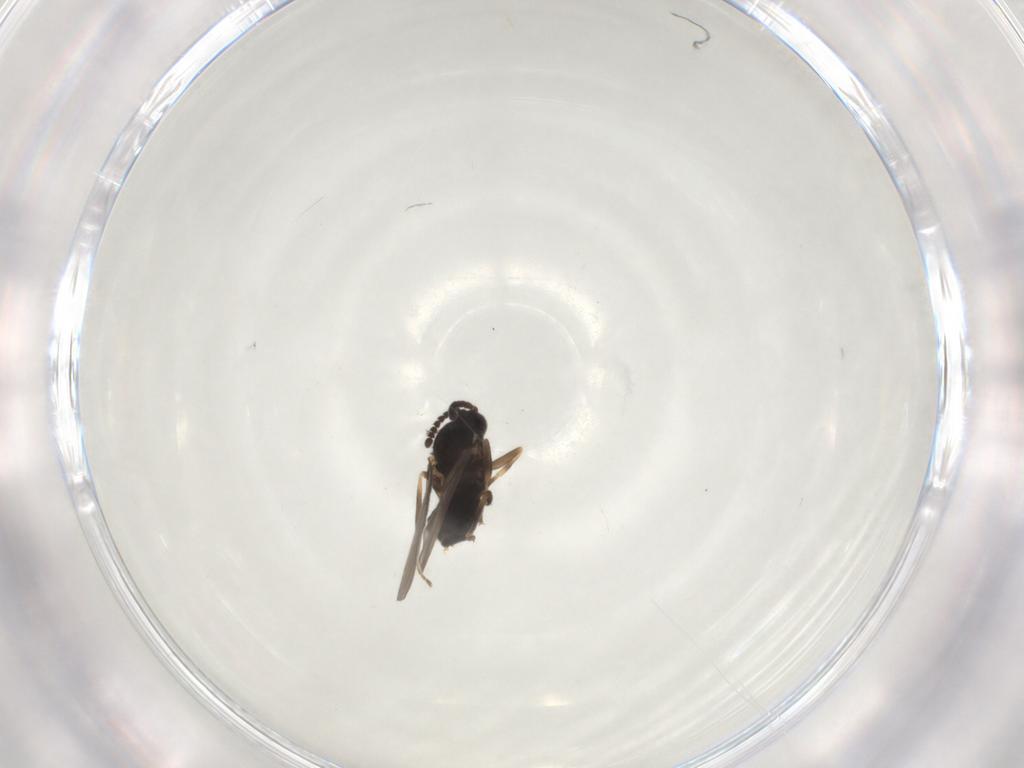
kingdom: Animalia
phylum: Arthropoda
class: Insecta
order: Diptera
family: Scatopsidae
